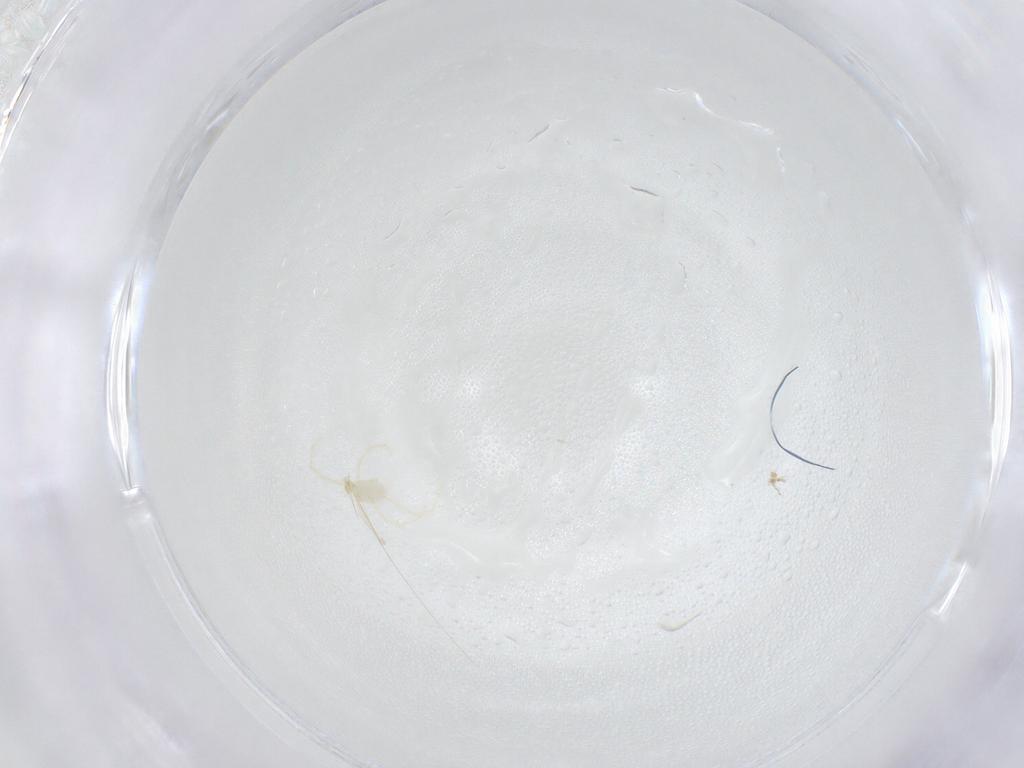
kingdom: Animalia
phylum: Arthropoda
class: Arachnida
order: Trombidiformes
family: Erythraeidae
